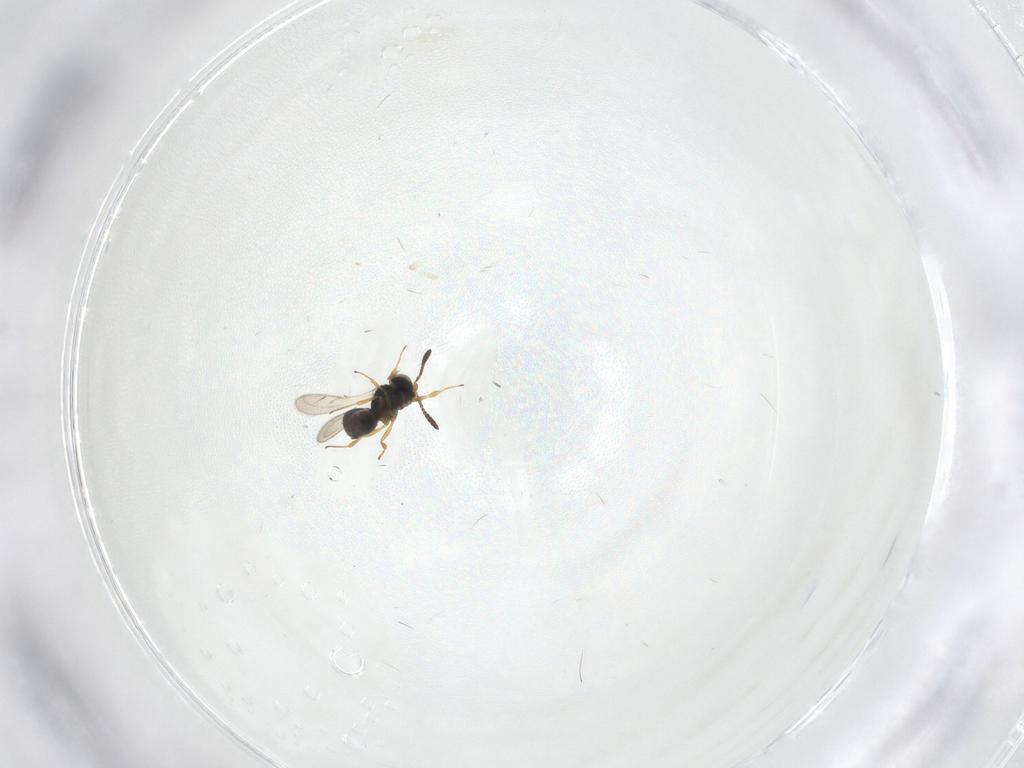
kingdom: Animalia
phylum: Arthropoda
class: Insecta
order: Hymenoptera
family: Scelionidae
